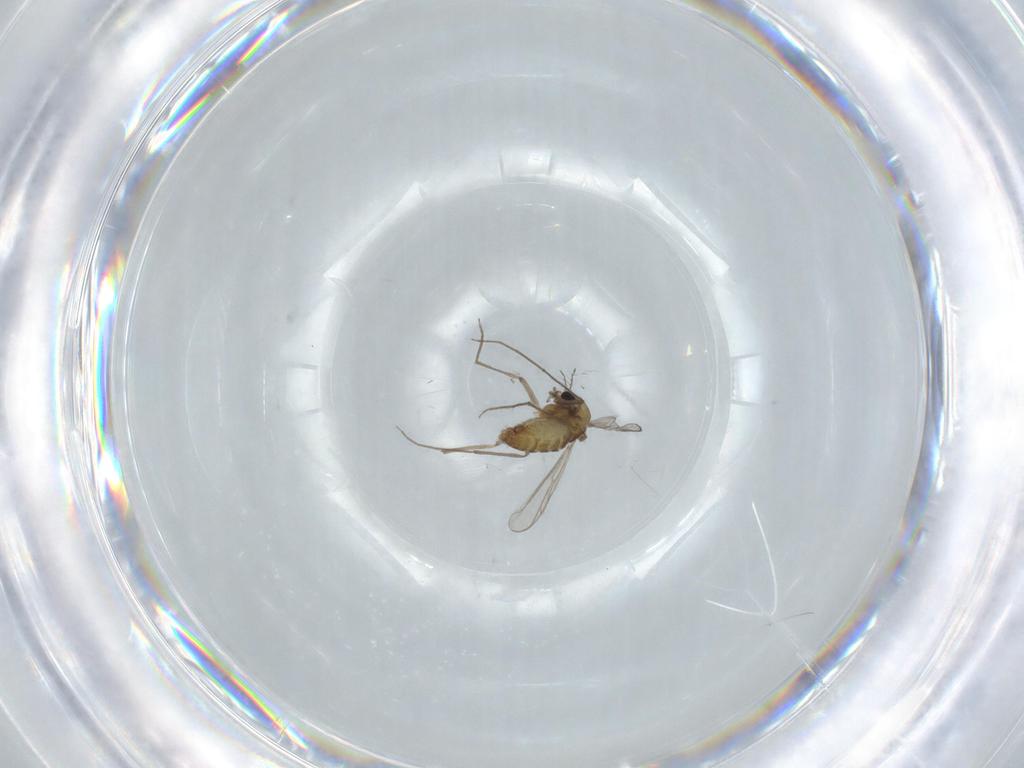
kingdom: Animalia
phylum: Arthropoda
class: Insecta
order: Diptera
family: Chironomidae
